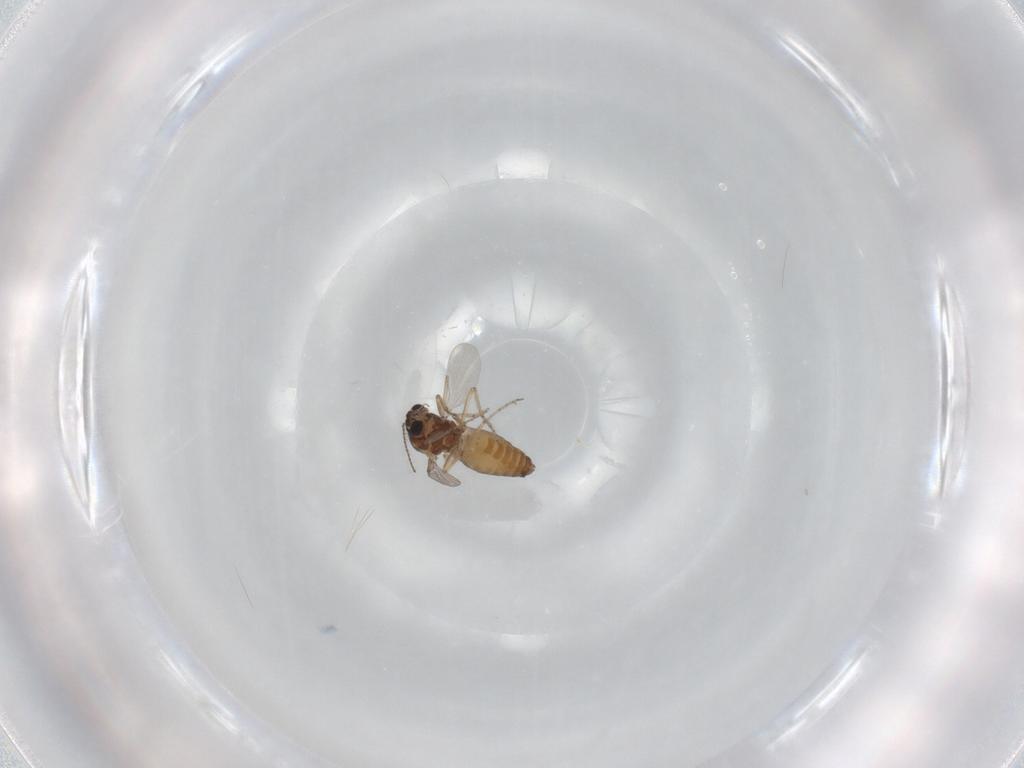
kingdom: Animalia
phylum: Arthropoda
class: Insecta
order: Diptera
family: Ceratopogonidae
